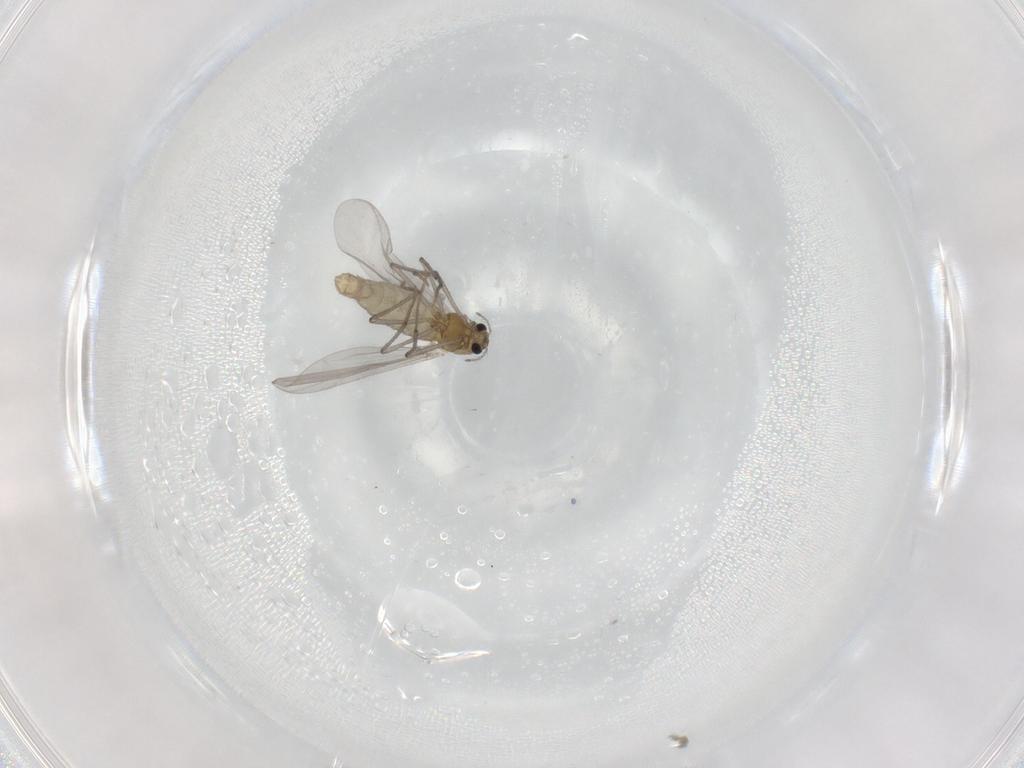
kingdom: Animalia
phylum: Arthropoda
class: Insecta
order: Diptera
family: Chironomidae
